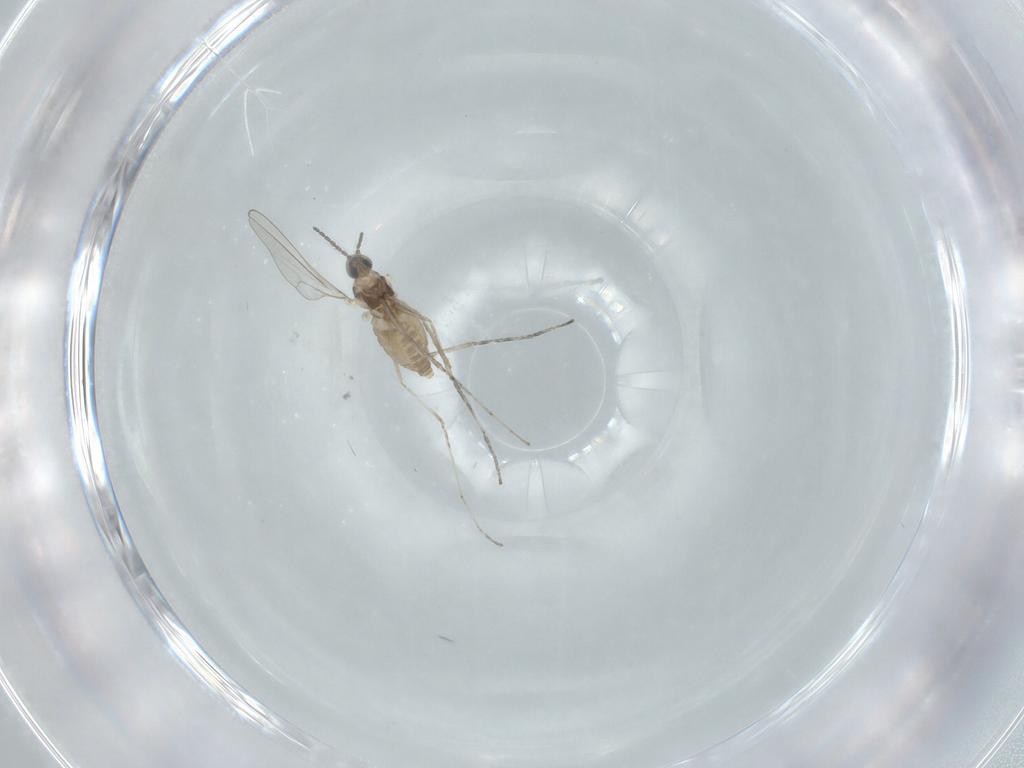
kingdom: Animalia
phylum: Arthropoda
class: Insecta
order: Diptera
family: Cecidomyiidae
